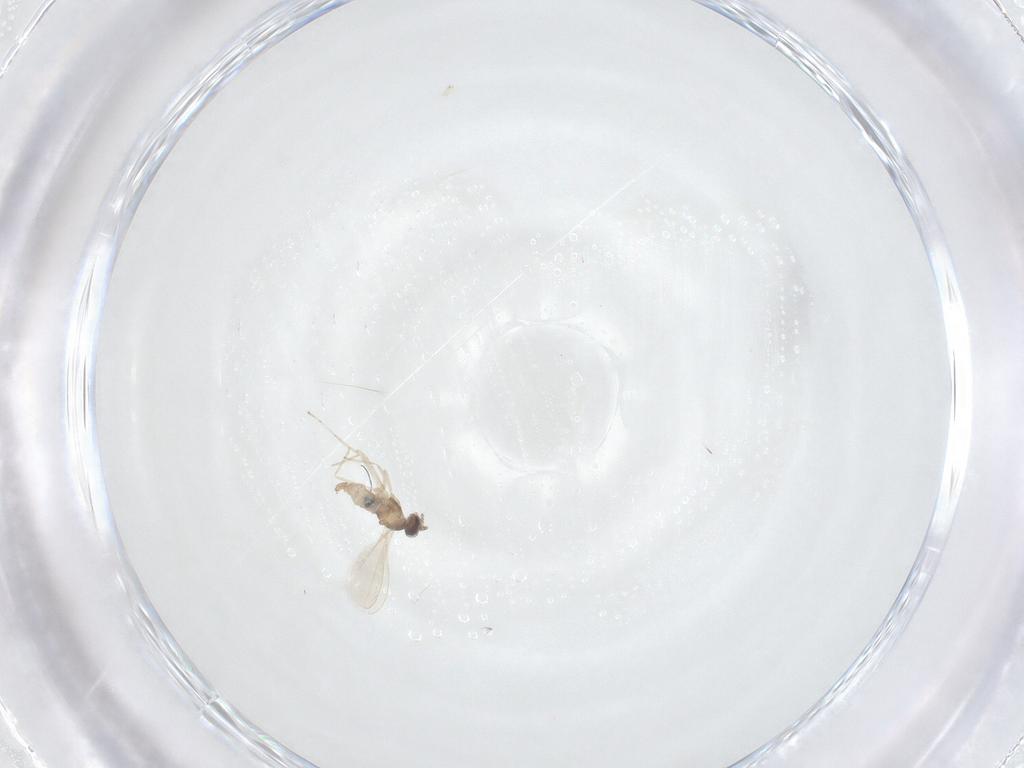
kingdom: Animalia
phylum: Arthropoda
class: Insecta
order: Diptera
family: Cecidomyiidae
